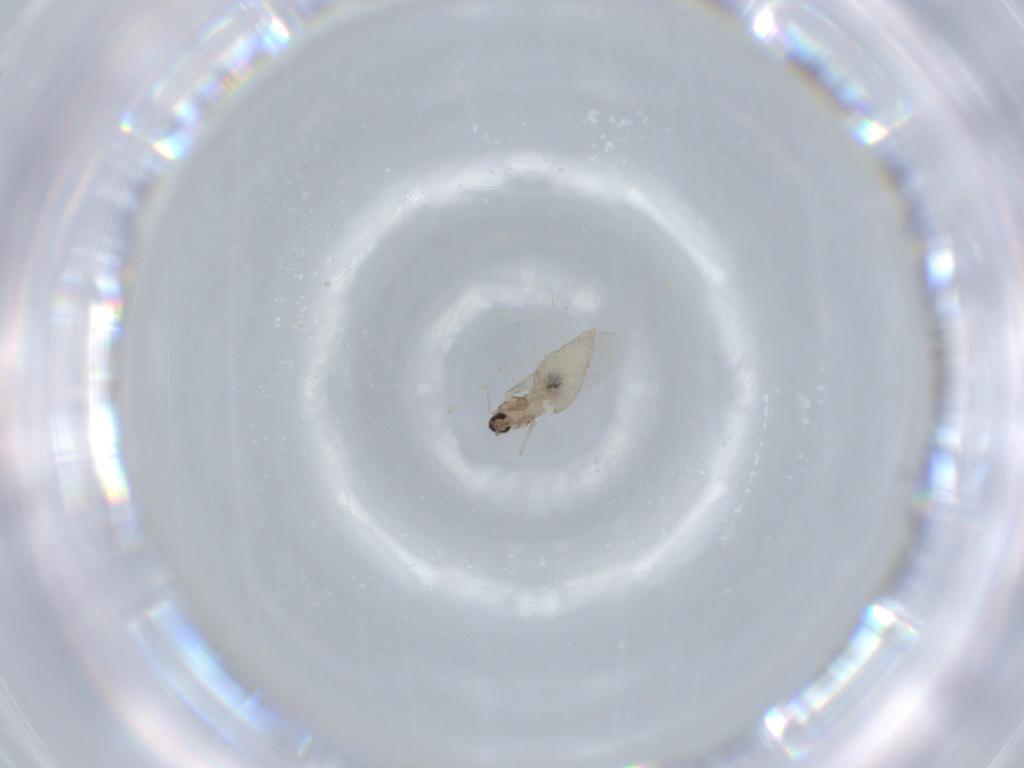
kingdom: Animalia
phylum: Arthropoda
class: Insecta
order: Diptera
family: Cecidomyiidae
